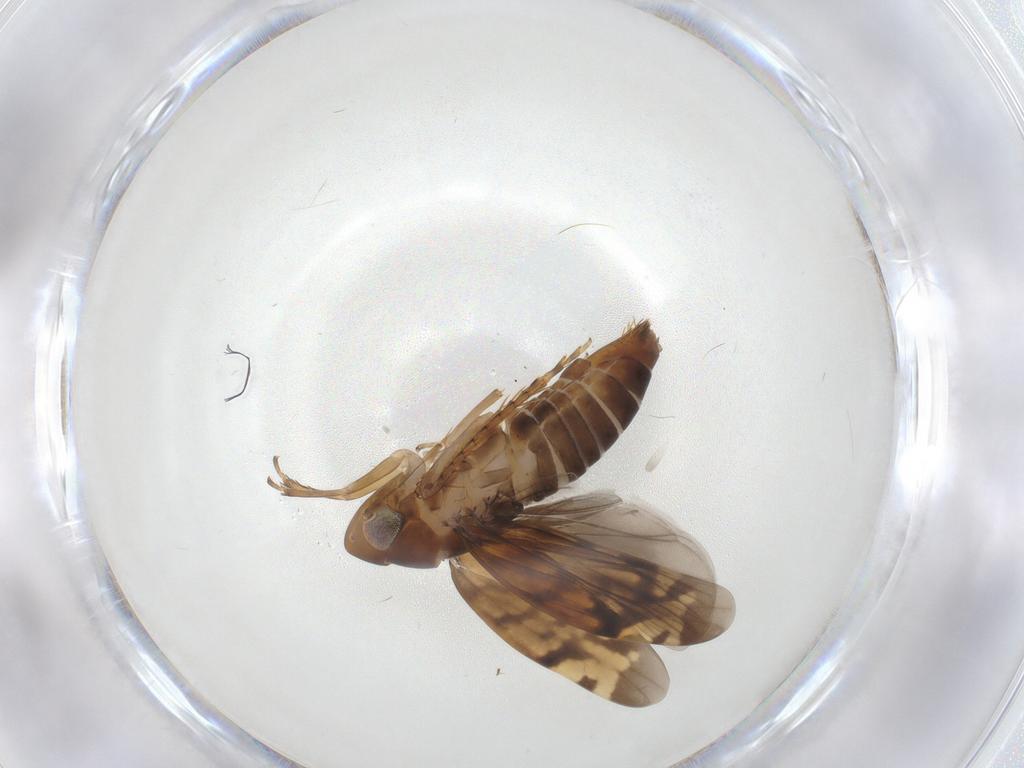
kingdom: Animalia
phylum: Arthropoda
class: Insecta
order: Hemiptera
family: Cicadellidae
